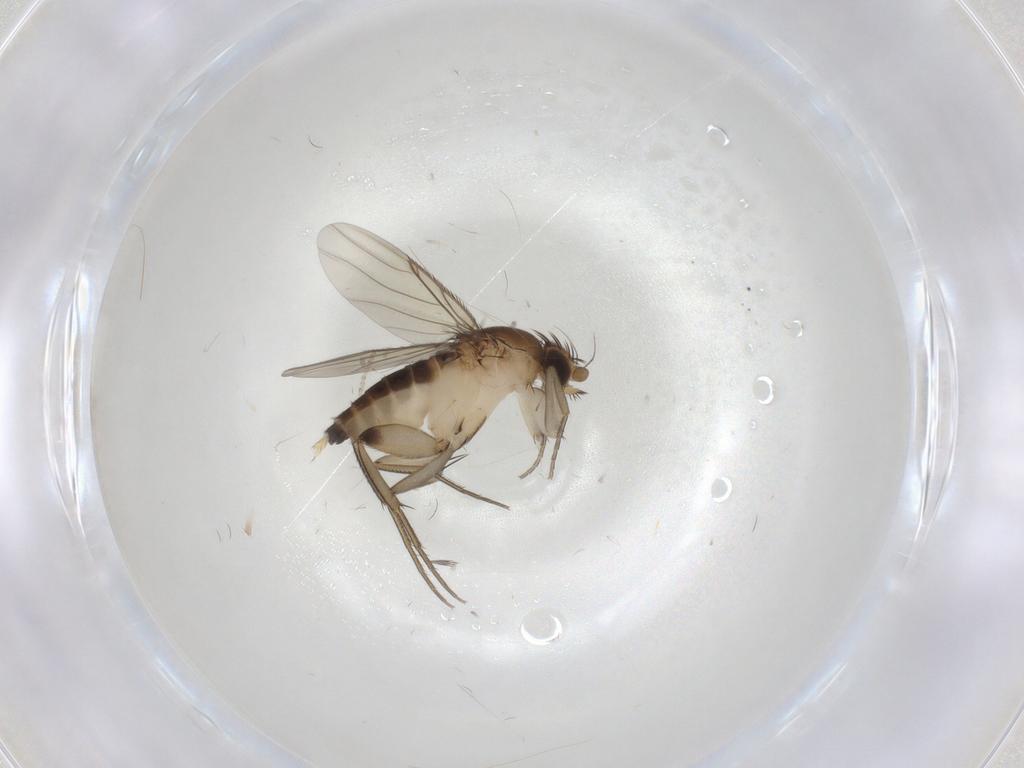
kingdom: Animalia
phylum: Arthropoda
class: Insecta
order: Diptera
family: Phoridae
